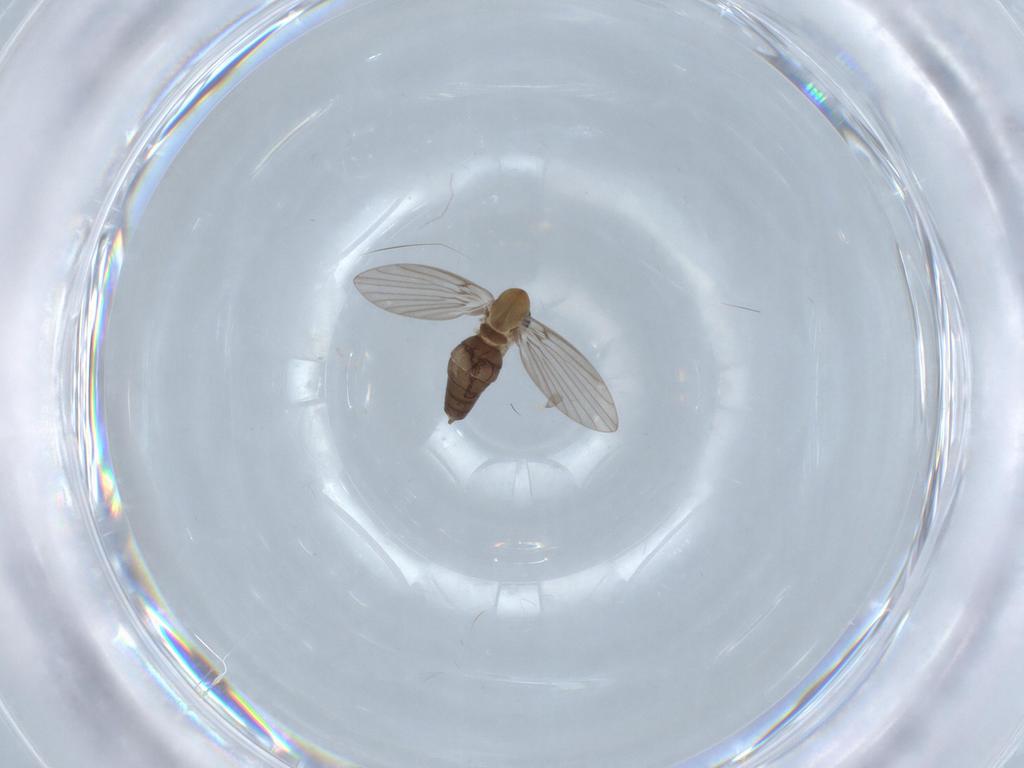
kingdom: Animalia
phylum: Arthropoda
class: Insecta
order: Diptera
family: Psychodidae
